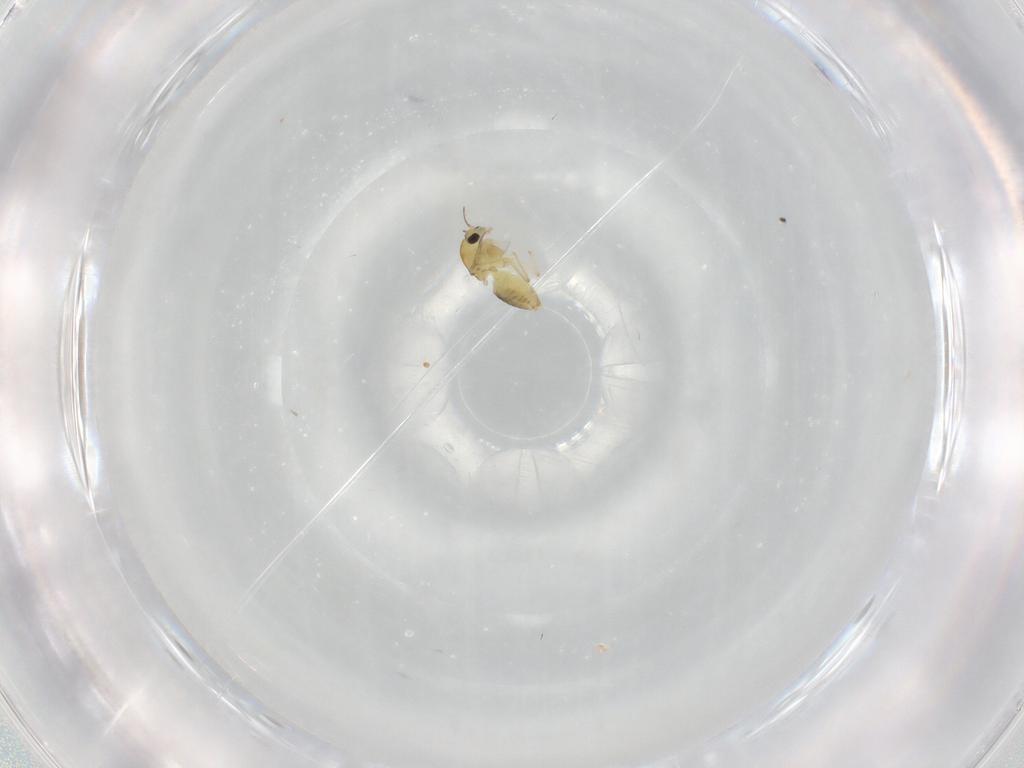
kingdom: Animalia
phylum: Arthropoda
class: Insecta
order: Diptera
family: Chironomidae
